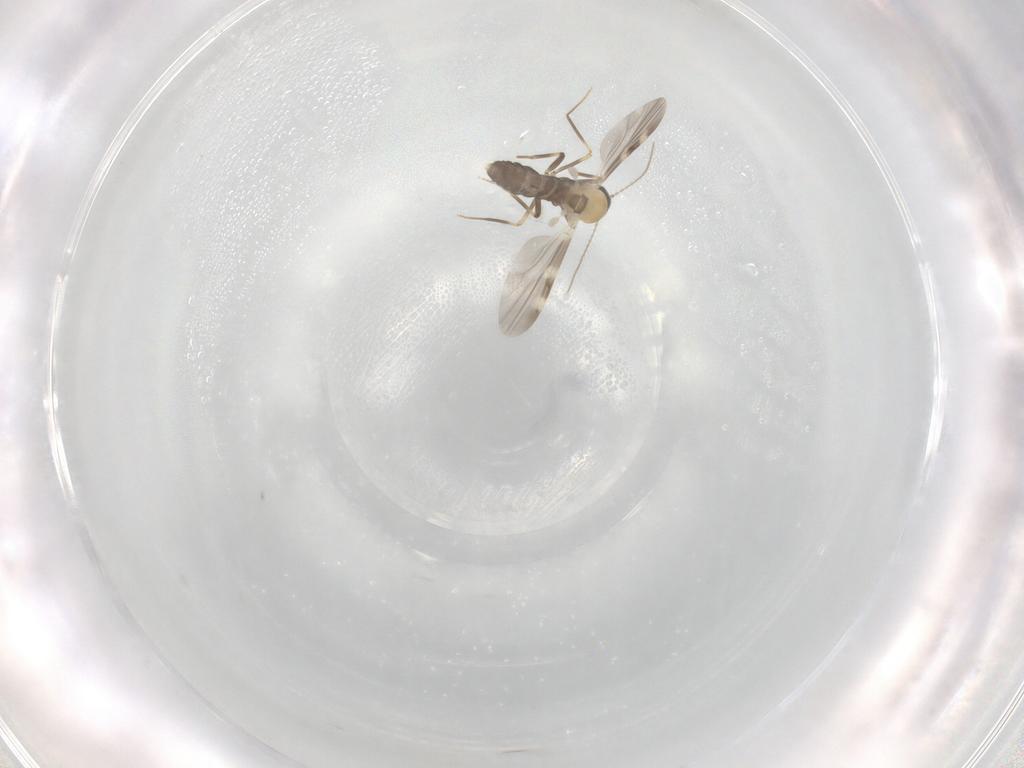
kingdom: Animalia
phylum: Arthropoda
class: Insecta
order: Diptera
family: Ceratopogonidae
